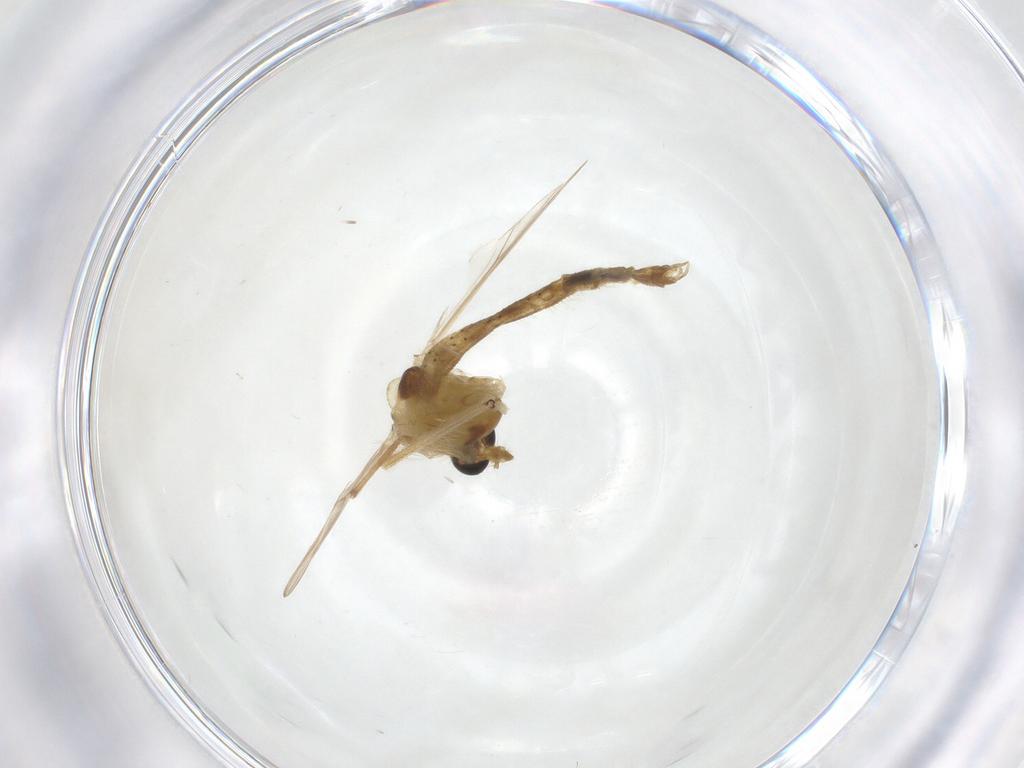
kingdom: Animalia
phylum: Arthropoda
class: Insecta
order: Diptera
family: Chironomidae
